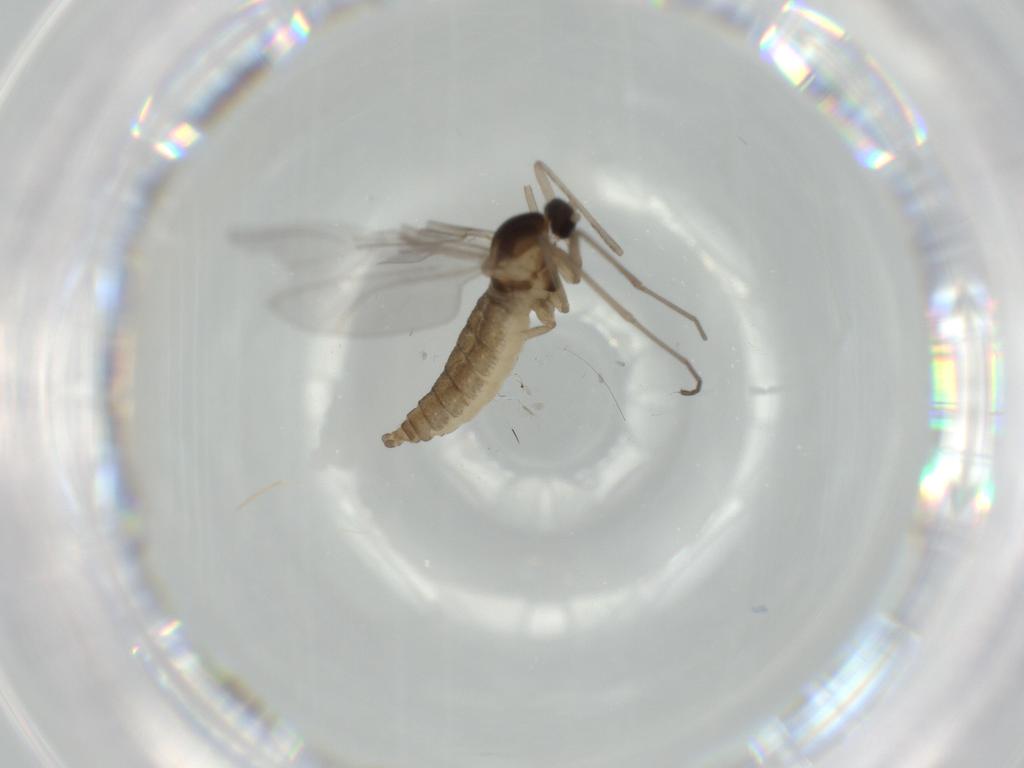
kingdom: Animalia
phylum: Arthropoda
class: Insecta
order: Diptera
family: Cecidomyiidae
